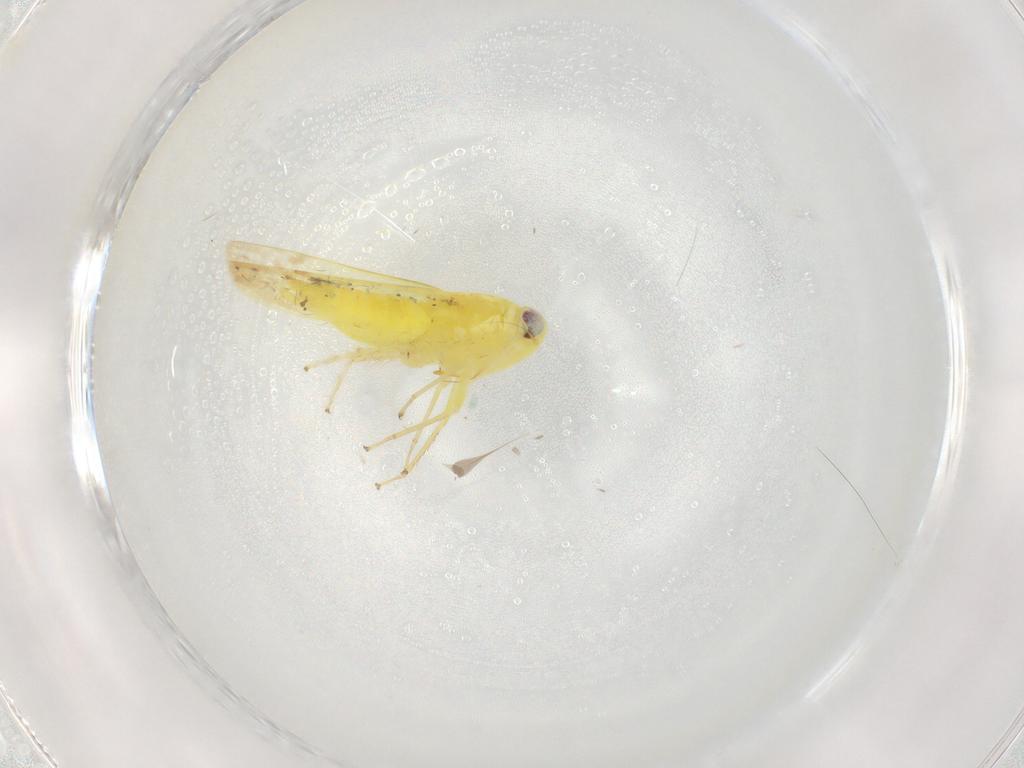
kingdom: Animalia
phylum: Arthropoda
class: Insecta
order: Hemiptera
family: Cicadellidae
